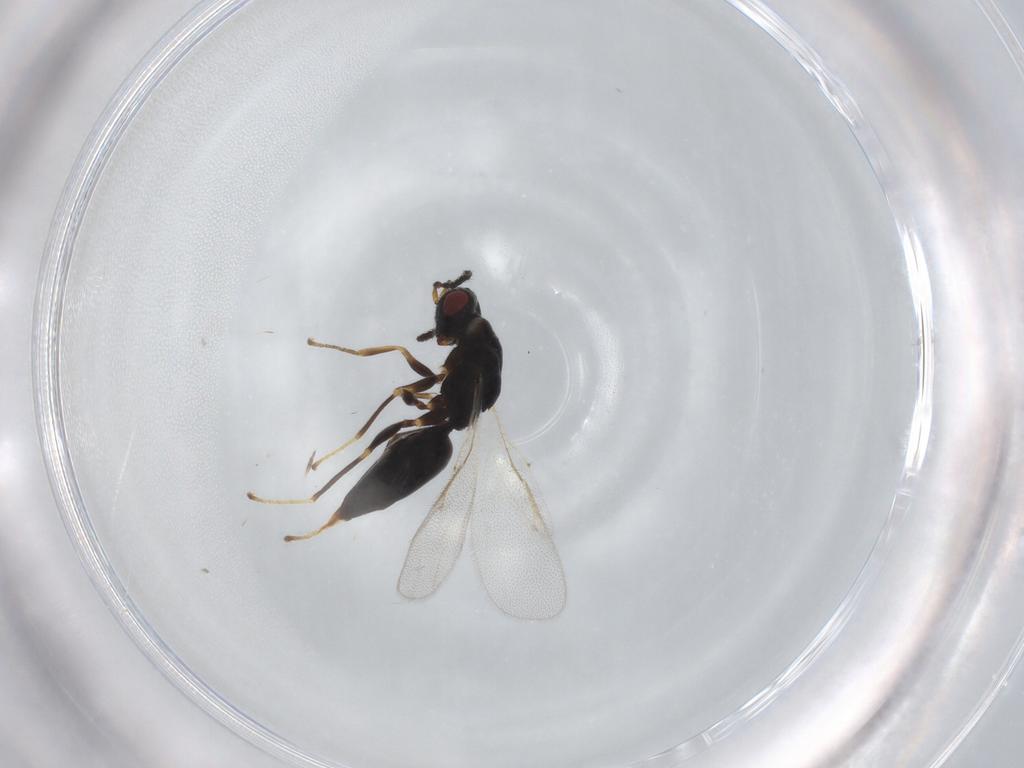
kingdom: Animalia
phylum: Arthropoda
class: Insecta
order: Hymenoptera
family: Eurytomidae
